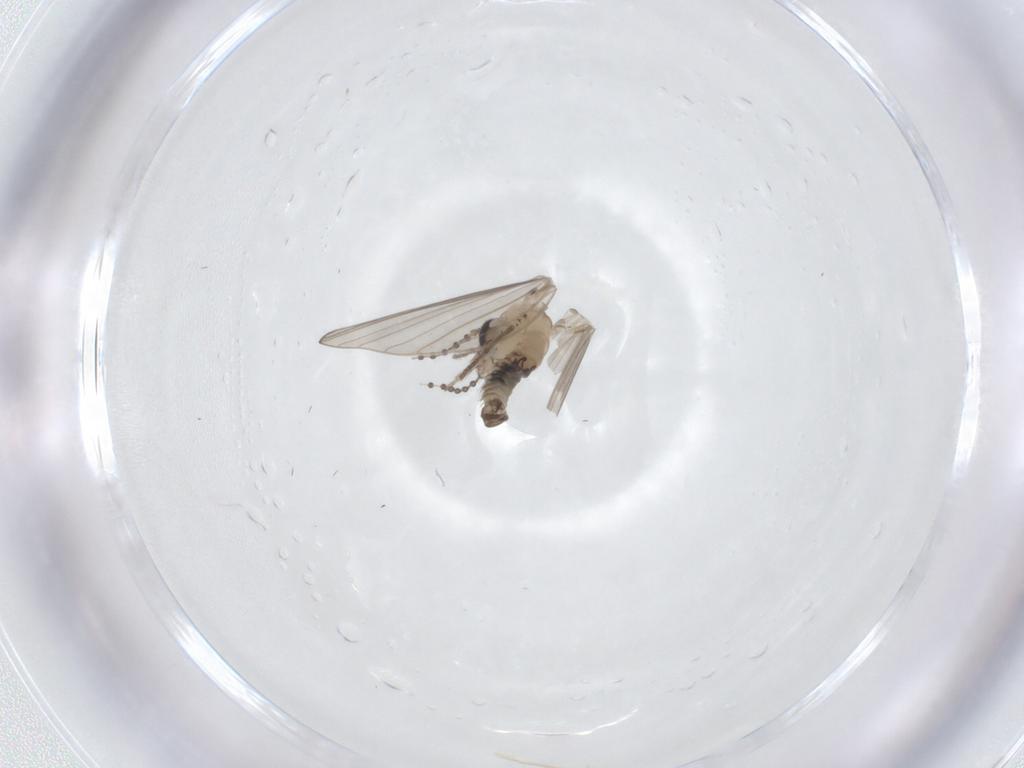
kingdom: Animalia
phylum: Arthropoda
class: Insecta
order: Diptera
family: Psychodidae
